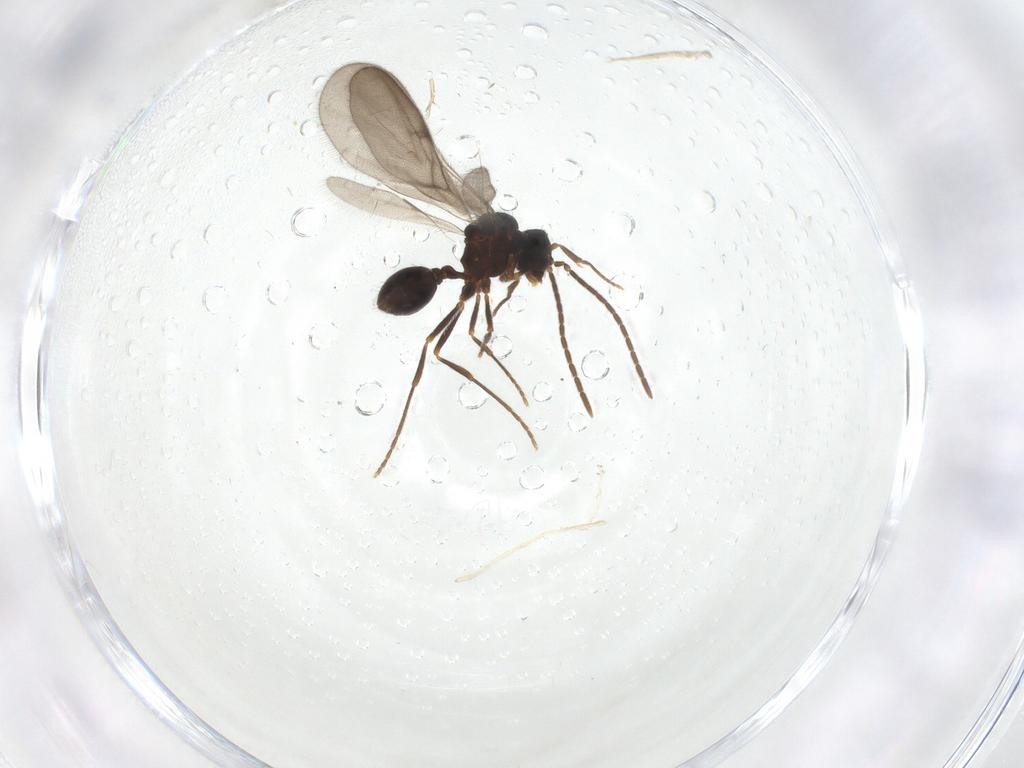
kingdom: Animalia
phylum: Arthropoda
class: Insecta
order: Hymenoptera
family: Formicidae
